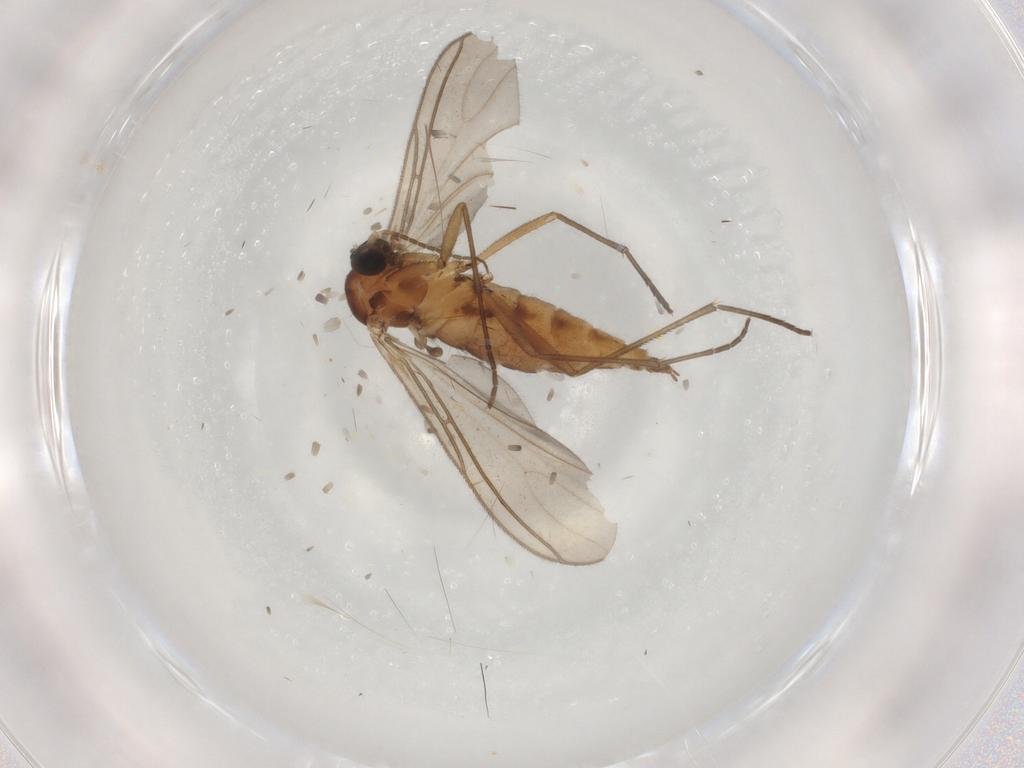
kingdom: Animalia
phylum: Arthropoda
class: Insecta
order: Diptera
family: Sciaridae
